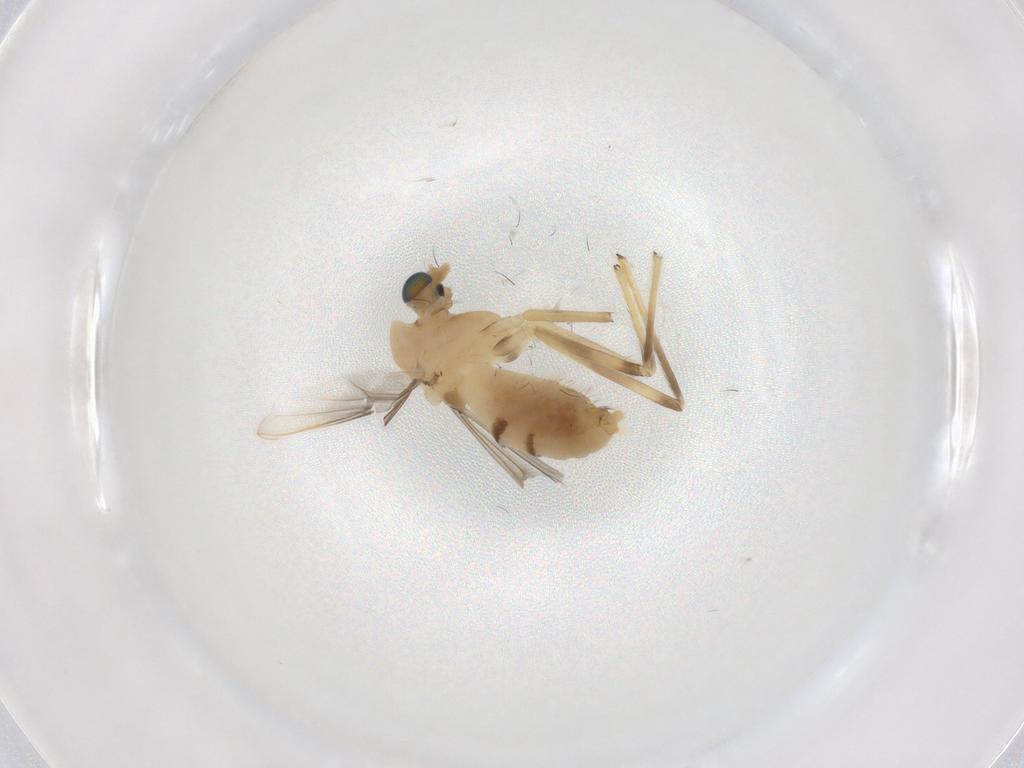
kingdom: Animalia
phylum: Arthropoda
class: Insecta
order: Diptera
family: Chironomidae
